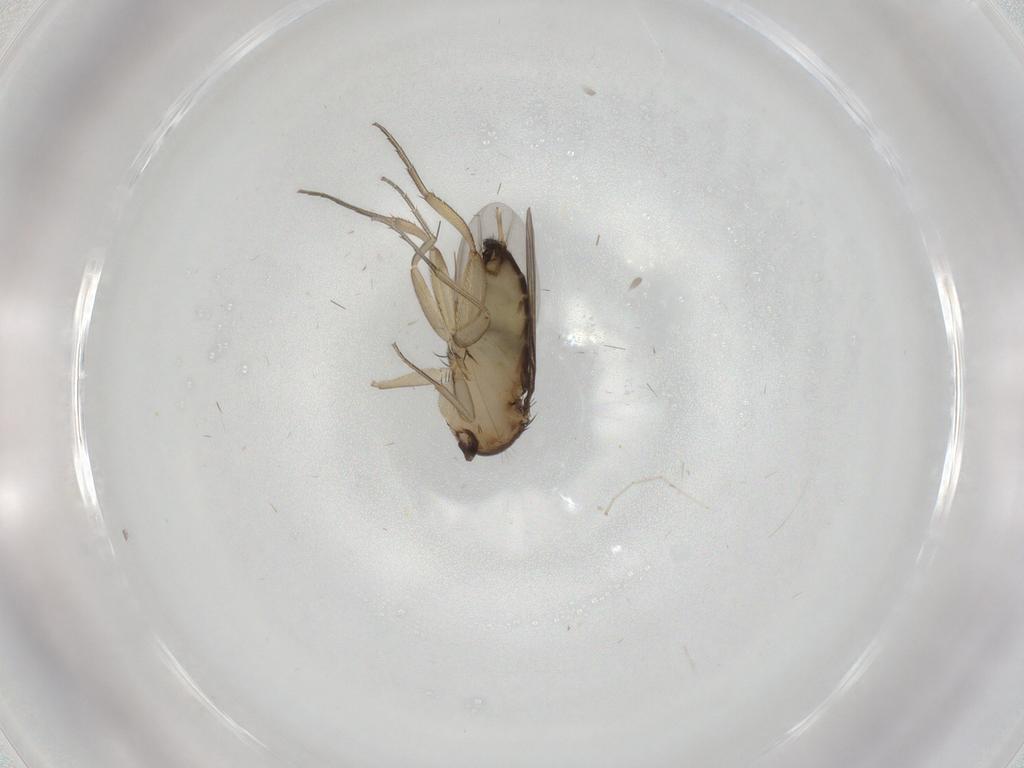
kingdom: Animalia
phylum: Arthropoda
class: Insecta
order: Diptera
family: Phoridae
